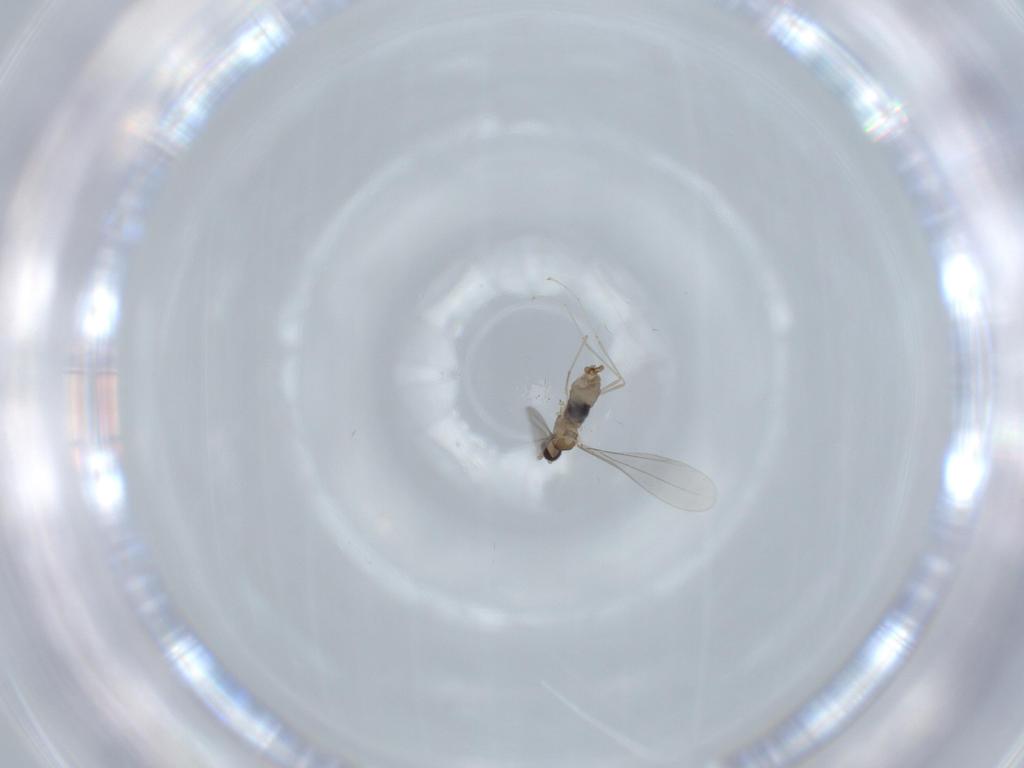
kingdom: Animalia
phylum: Arthropoda
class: Insecta
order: Diptera
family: Cecidomyiidae
